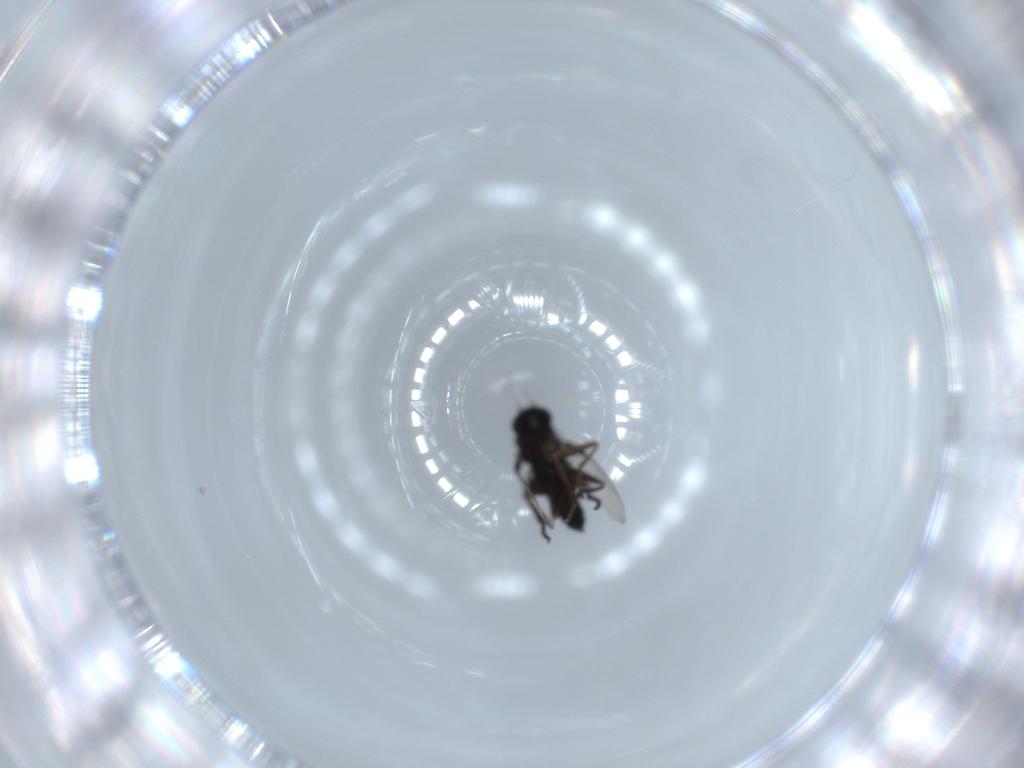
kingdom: Animalia
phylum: Arthropoda
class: Insecta
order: Diptera
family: Phoridae
